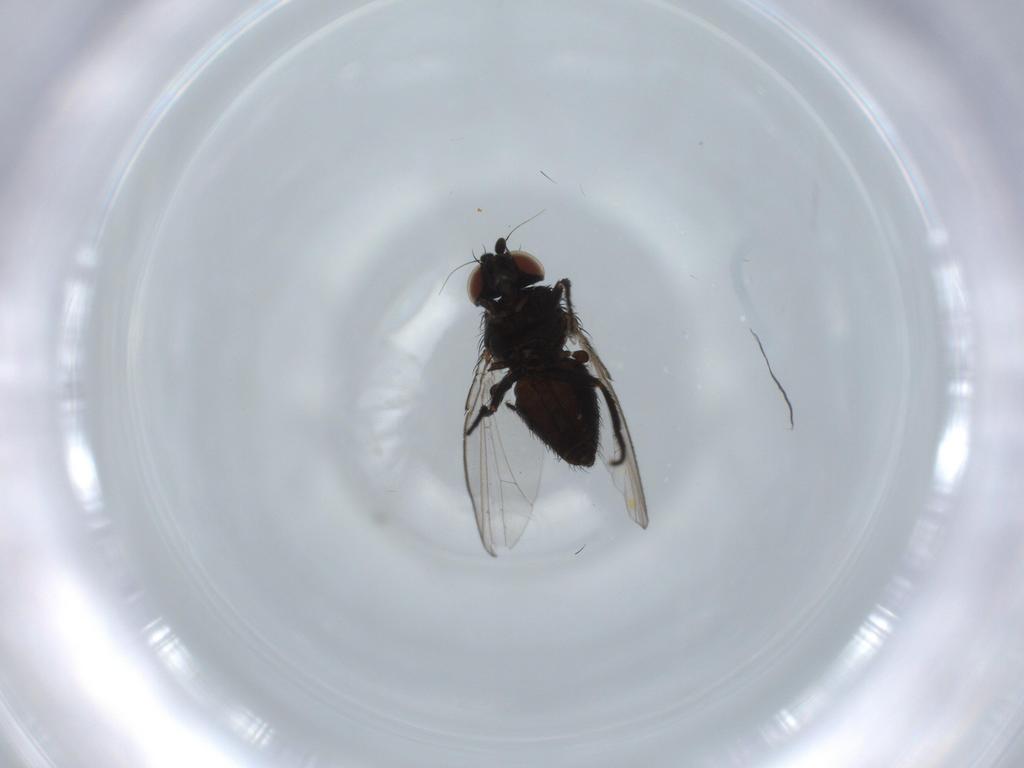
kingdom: Animalia
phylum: Arthropoda
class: Insecta
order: Diptera
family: Milichiidae
